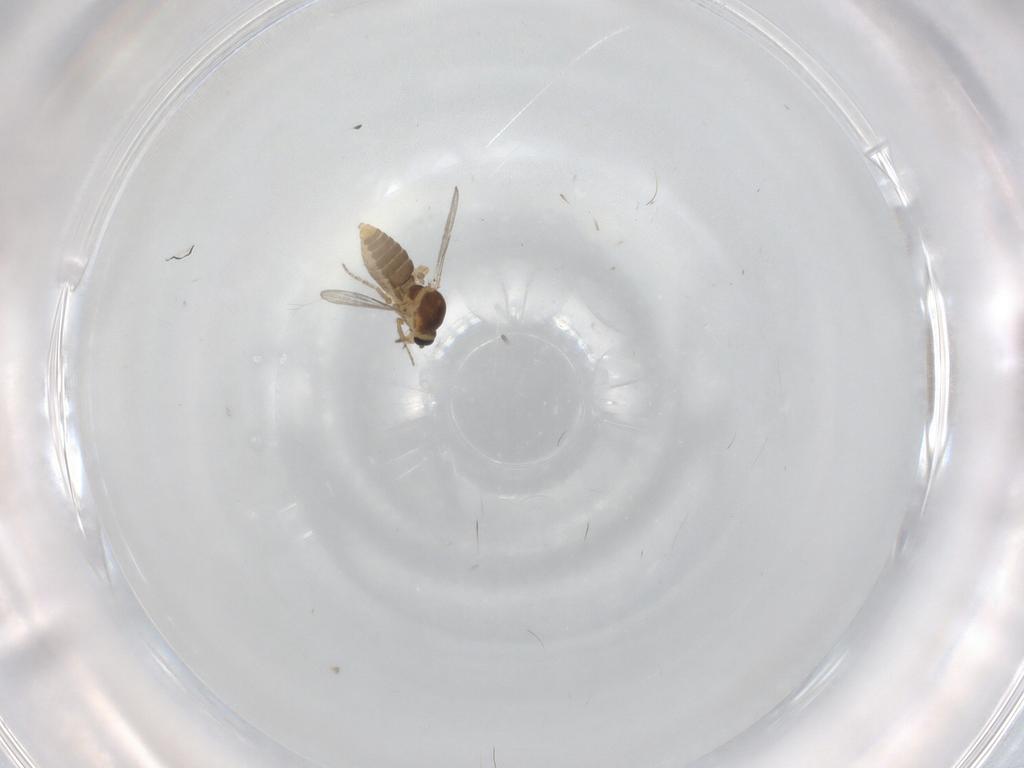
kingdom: Animalia
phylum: Arthropoda
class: Insecta
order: Diptera
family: Ceratopogonidae
